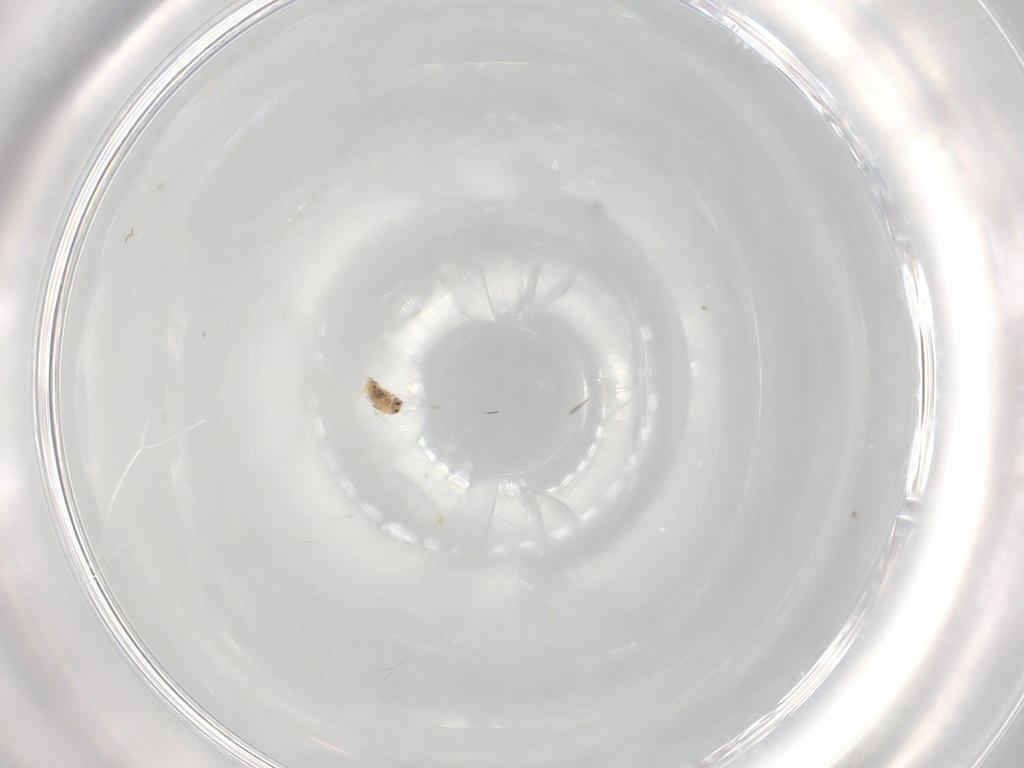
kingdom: Animalia
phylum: Arthropoda
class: Collembola
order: Symphypleona
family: Bourletiellidae
